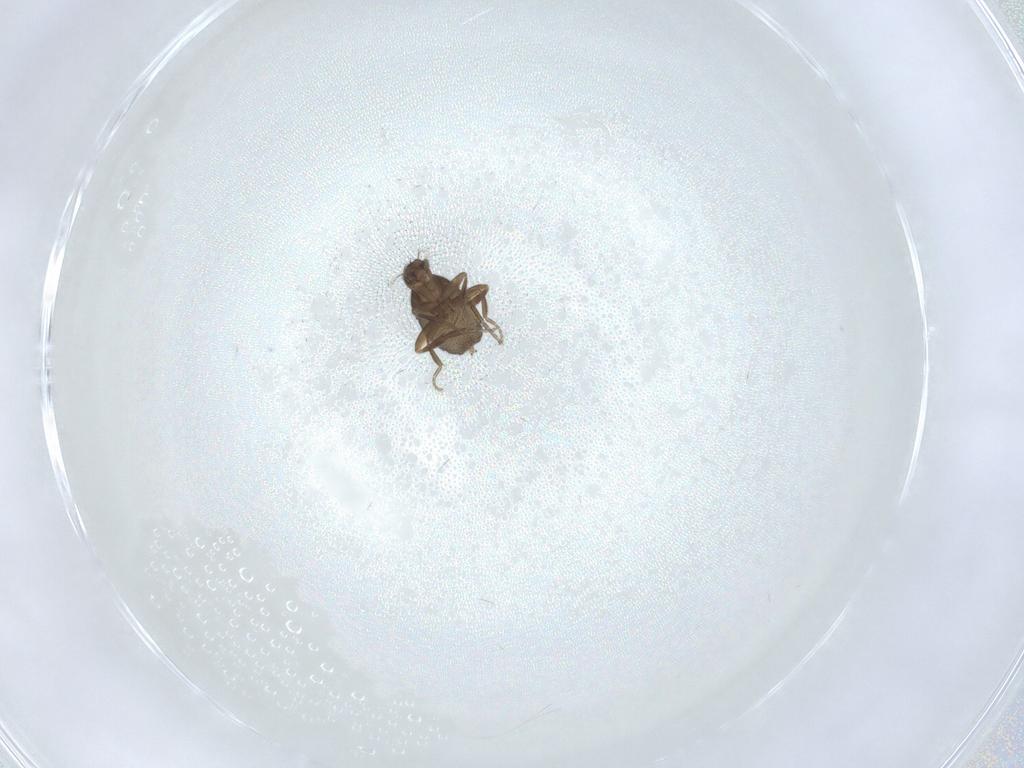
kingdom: Animalia
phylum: Arthropoda
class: Insecta
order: Diptera
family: Phoridae
